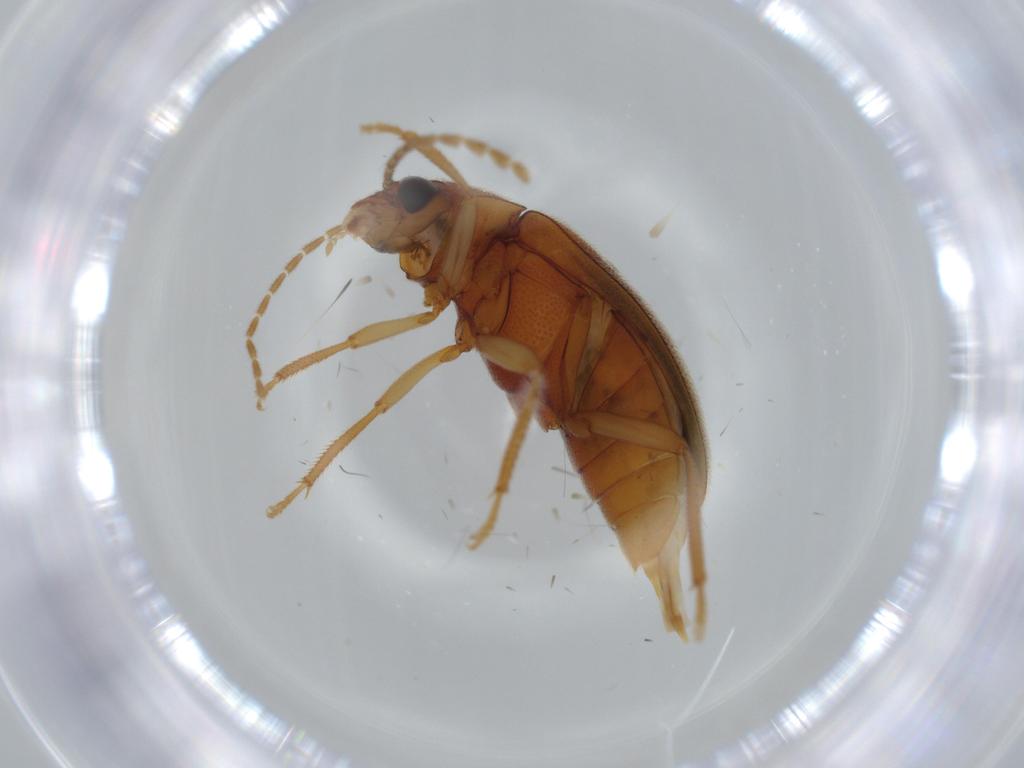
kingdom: Animalia
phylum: Arthropoda
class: Insecta
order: Coleoptera
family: Ptilodactylidae
